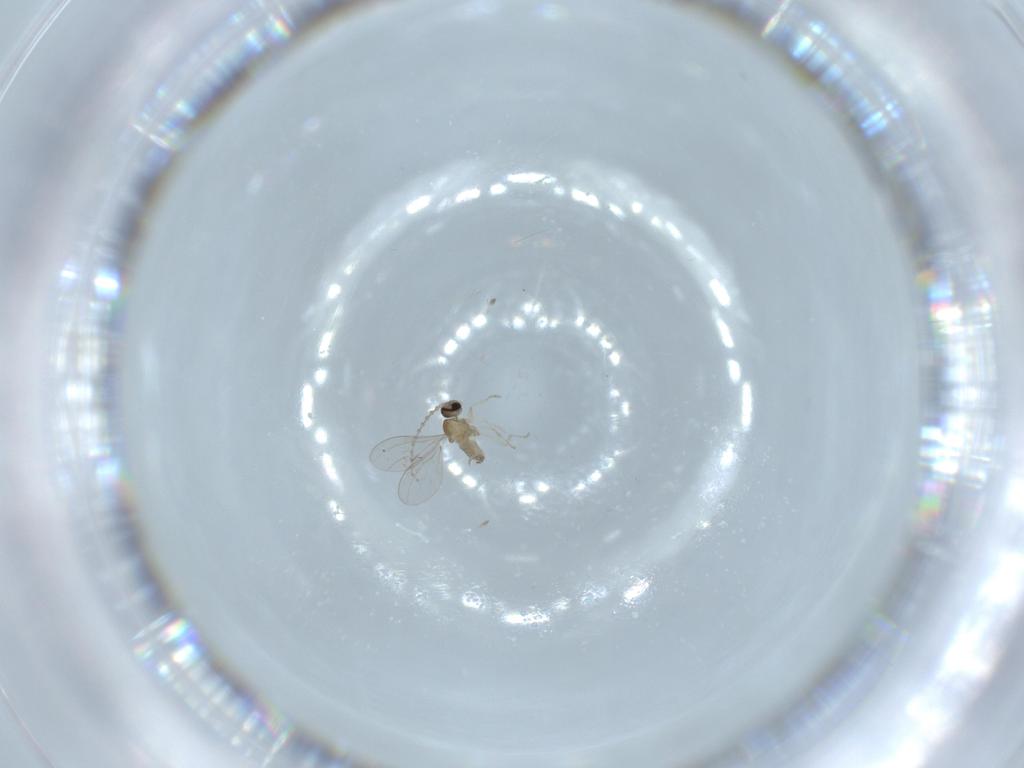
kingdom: Animalia
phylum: Arthropoda
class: Insecta
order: Diptera
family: Cecidomyiidae
